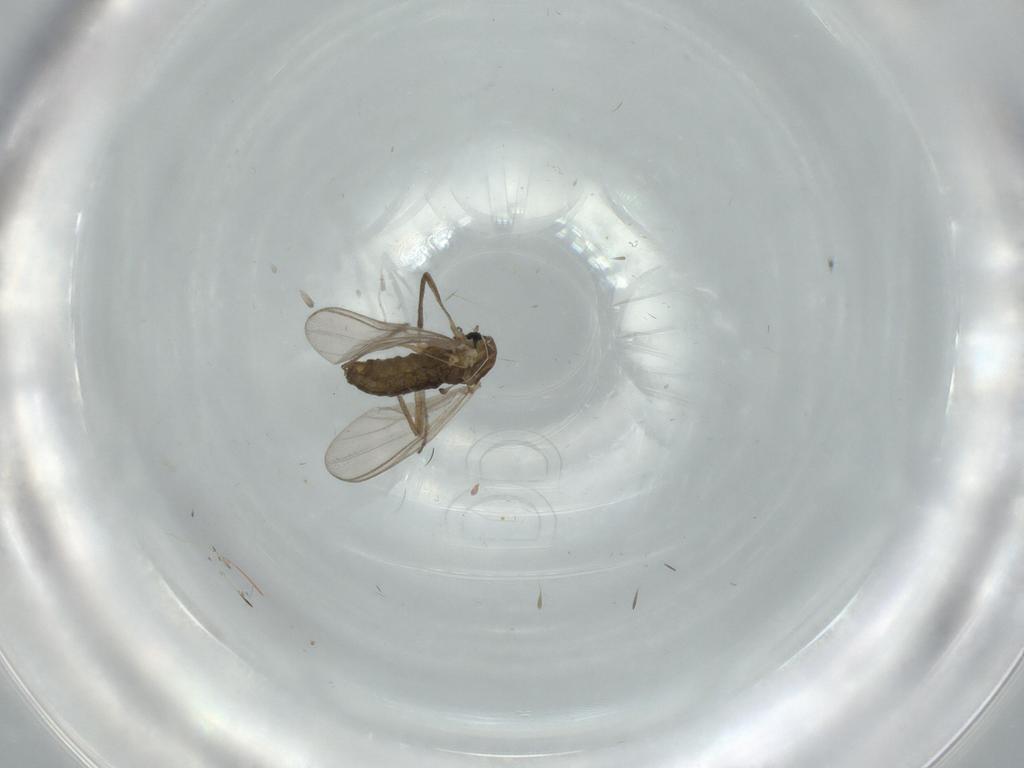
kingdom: Animalia
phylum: Arthropoda
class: Insecta
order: Diptera
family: Chironomidae
